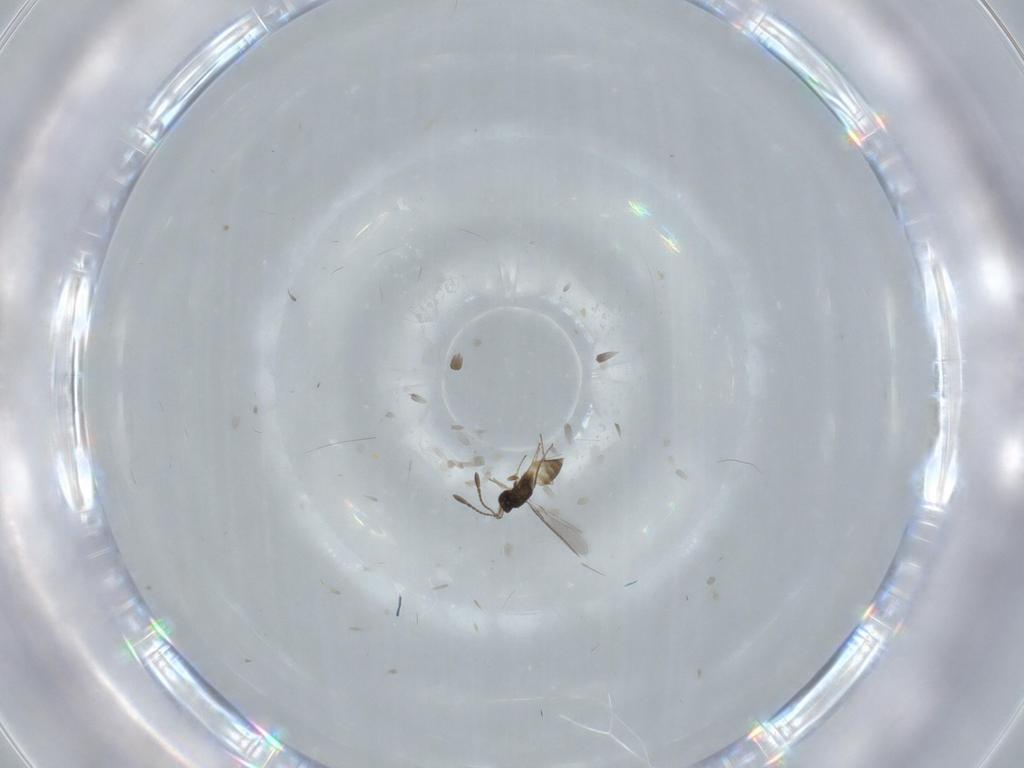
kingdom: Animalia
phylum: Arthropoda
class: Insecta
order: Hymenoptera
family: Mymaridae
